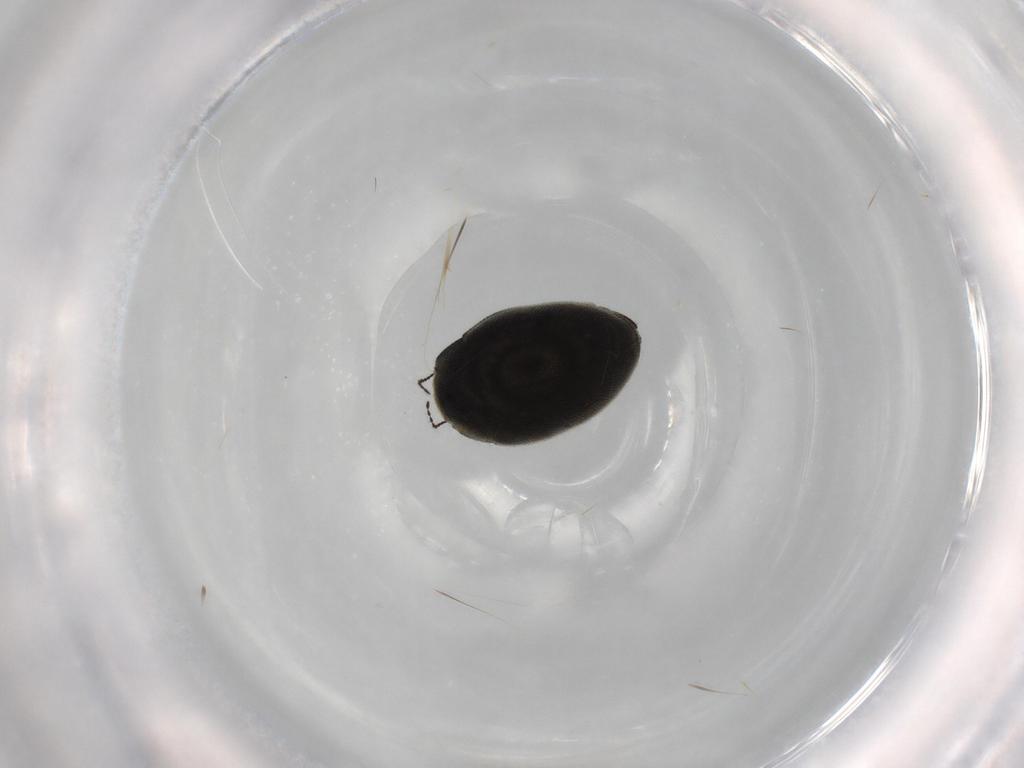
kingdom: Animalia
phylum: Arthropoda
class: Insecta
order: Coleoptera
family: Limnichidae
